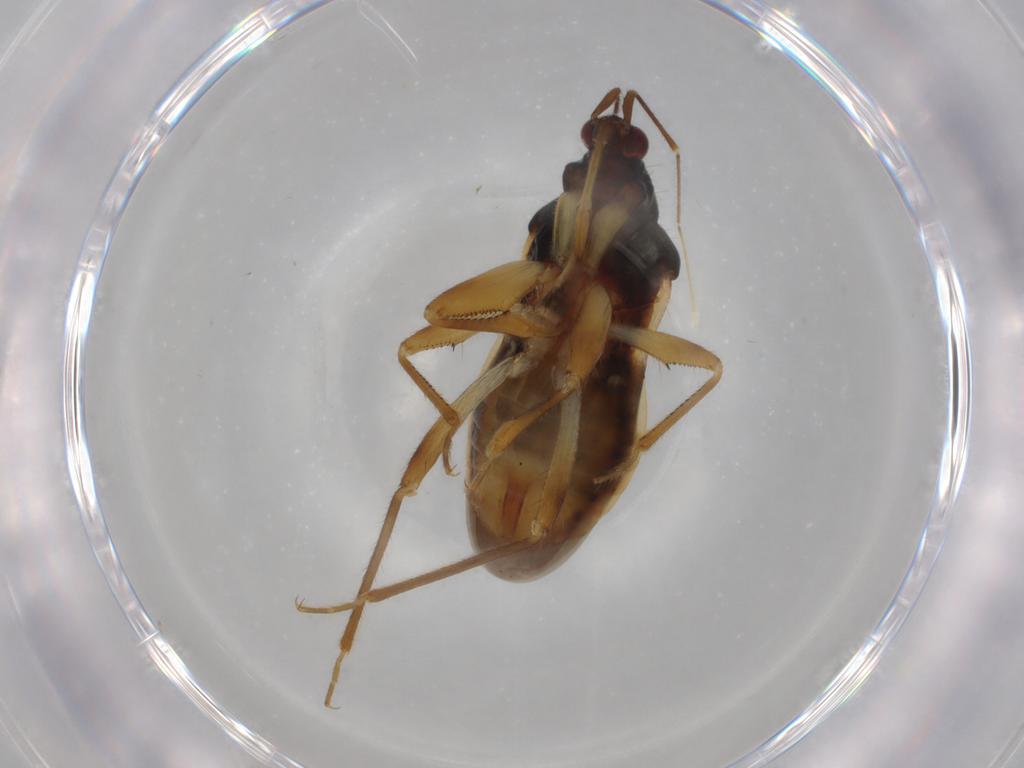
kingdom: Animalia
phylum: Arthropoda
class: Insecta
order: Hemiptera
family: Nabidae
